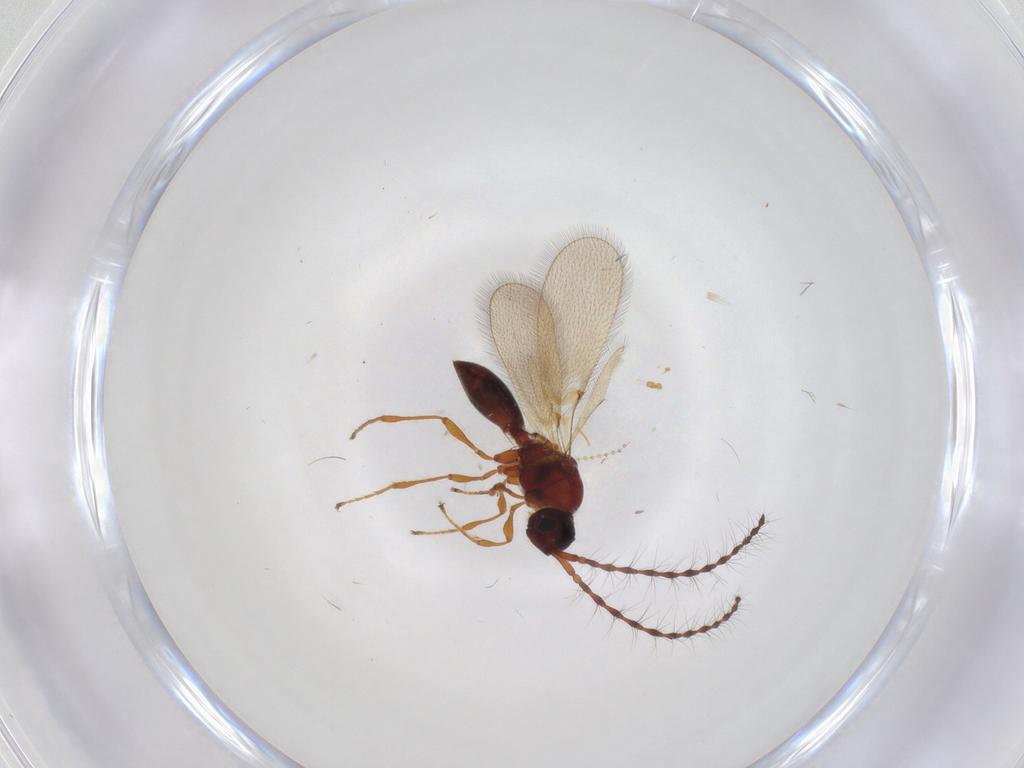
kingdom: Animalia
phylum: Arthropoda
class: Insecta
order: Hymenoptera
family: Diapriidae
